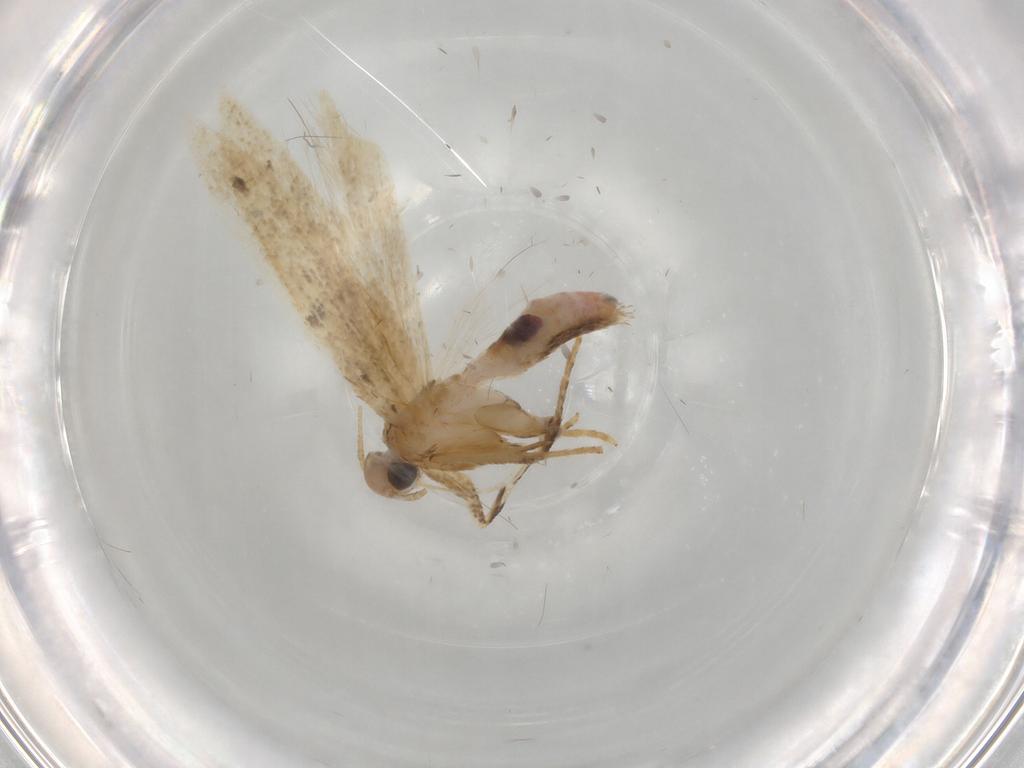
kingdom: Animalia
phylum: Arthropoda
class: Insecta
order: Lepidoptera
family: Gelechiidae
